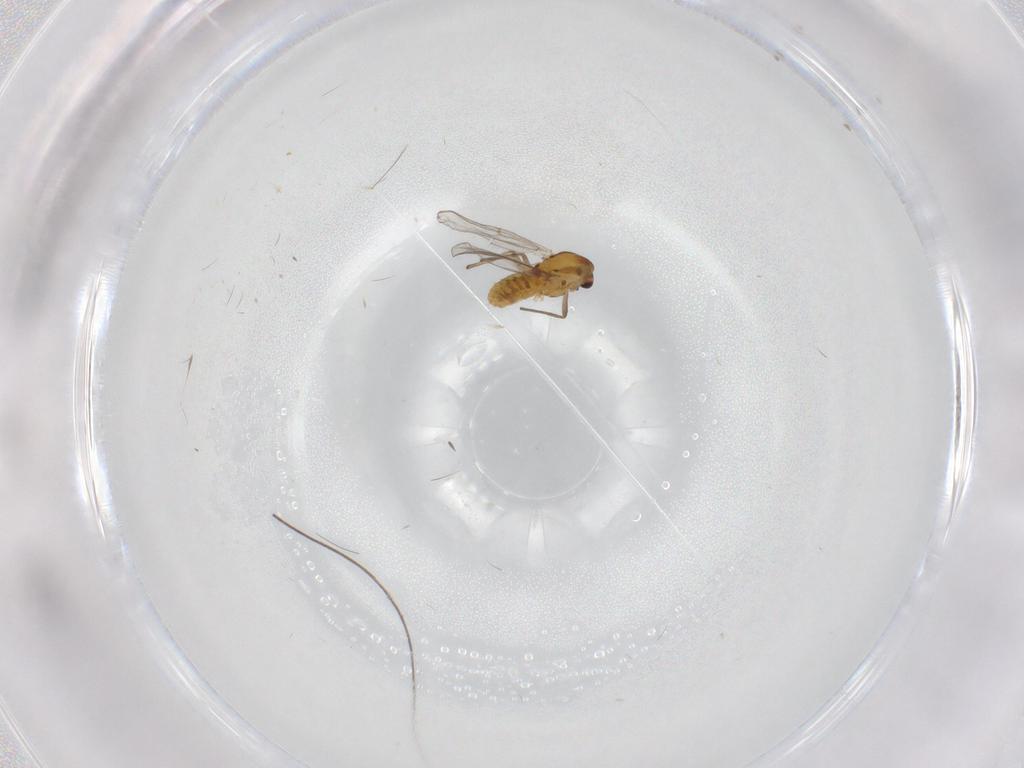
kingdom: Animalia
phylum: Arthropoda
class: Insecta
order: Diptera
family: Chironomidae
